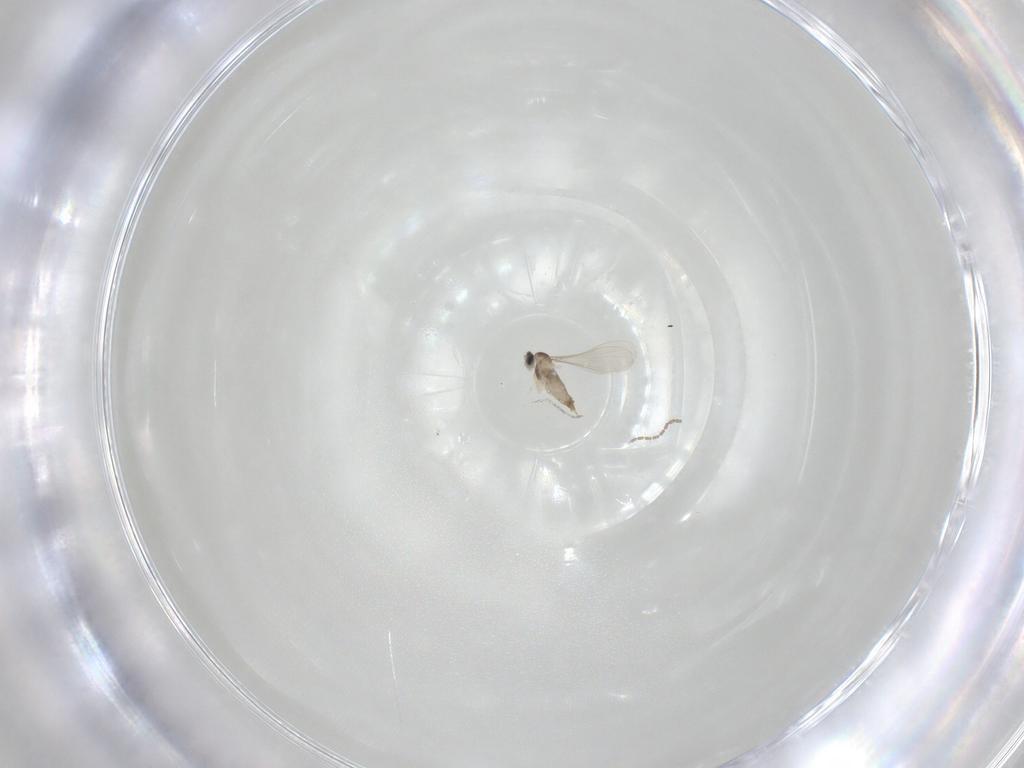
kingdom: Animalia
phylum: Arthropoda
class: Insecta
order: Diptera
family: Cecidomyiidae
